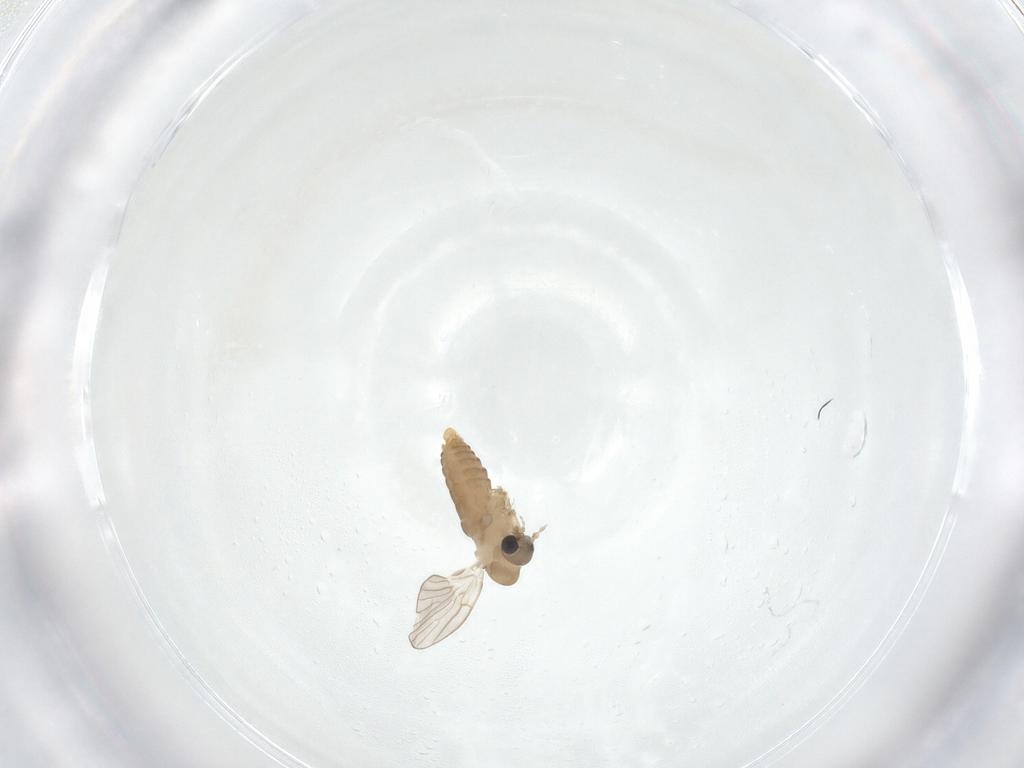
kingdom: Animalia
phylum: Arthropoda
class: Insecta
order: Diptera
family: Psychodidae
